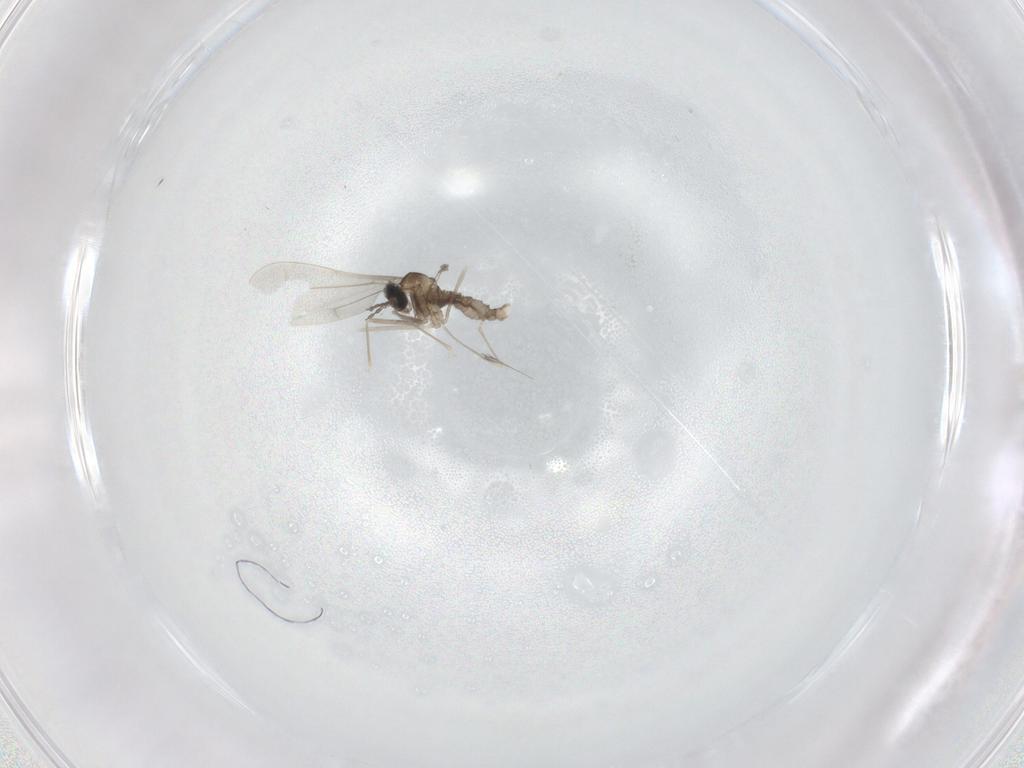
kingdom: Animalia
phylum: Arthropoda
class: Insecta
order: Diptera
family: Cecidomyiidae
